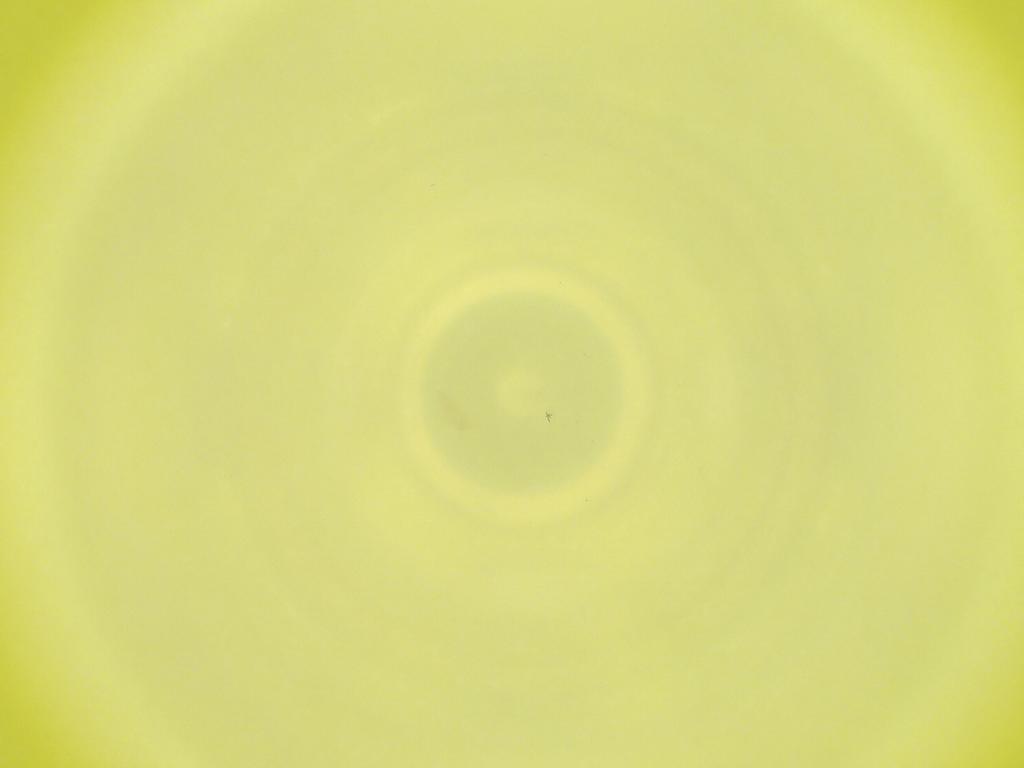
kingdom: Animalia
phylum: Arthropoda
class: Insecta
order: Diptera
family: Cecidomyiidae
